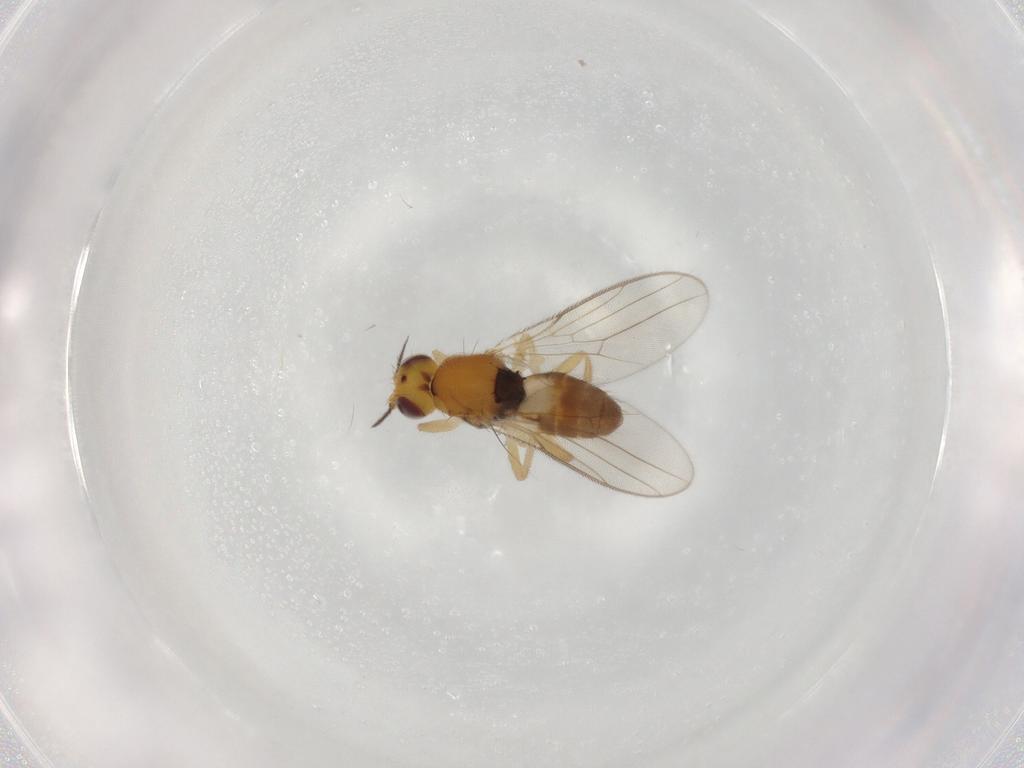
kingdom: Animalia
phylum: Arthropoda
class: Insecta
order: Diptera
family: Chloropidae
